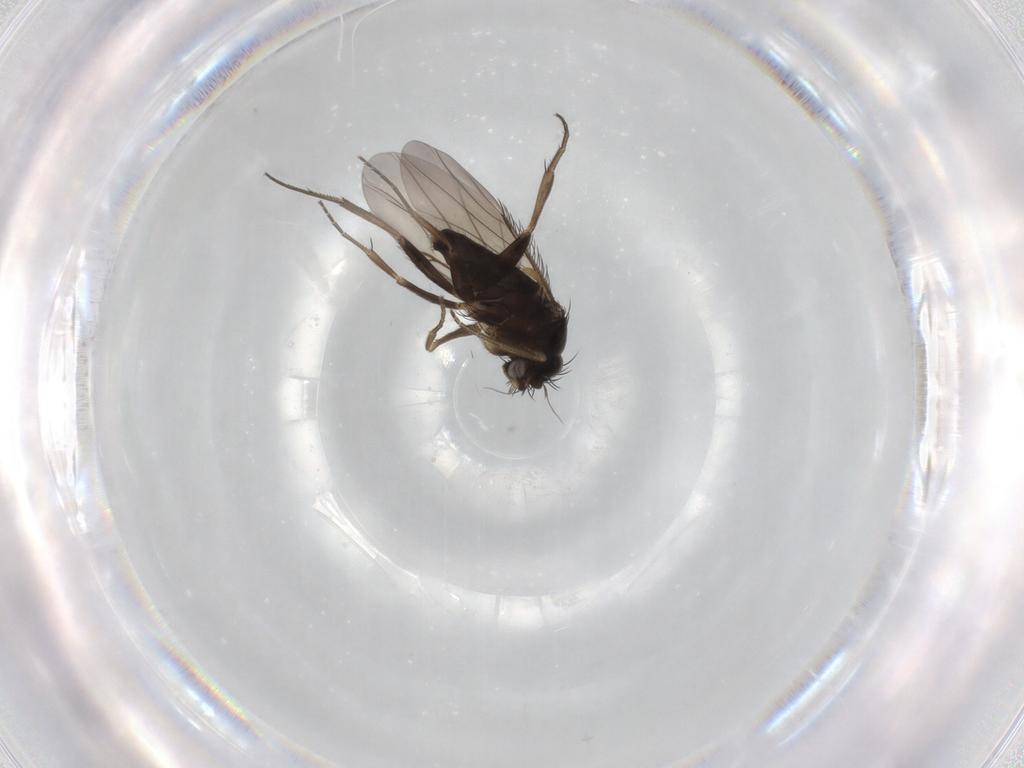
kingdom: Animalia
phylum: Arthropoda
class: Insecta
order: Diptera
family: Phoridae
